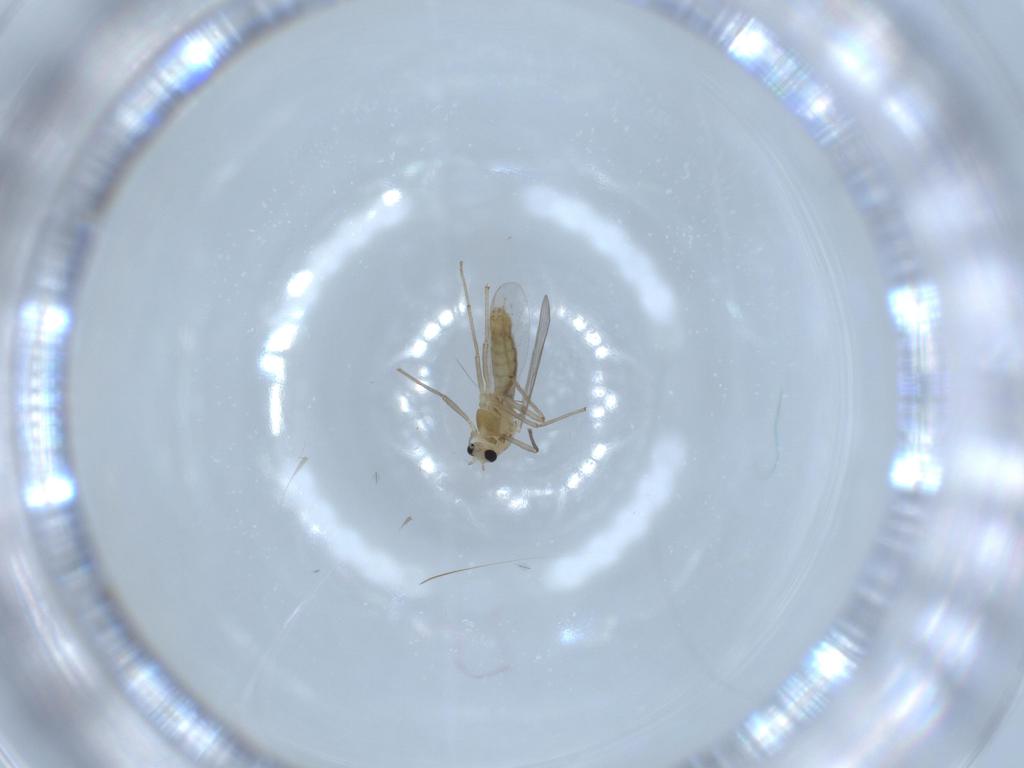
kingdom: Animalia
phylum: Arthropoda
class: Insecta
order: Diptera
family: Chironomidae
